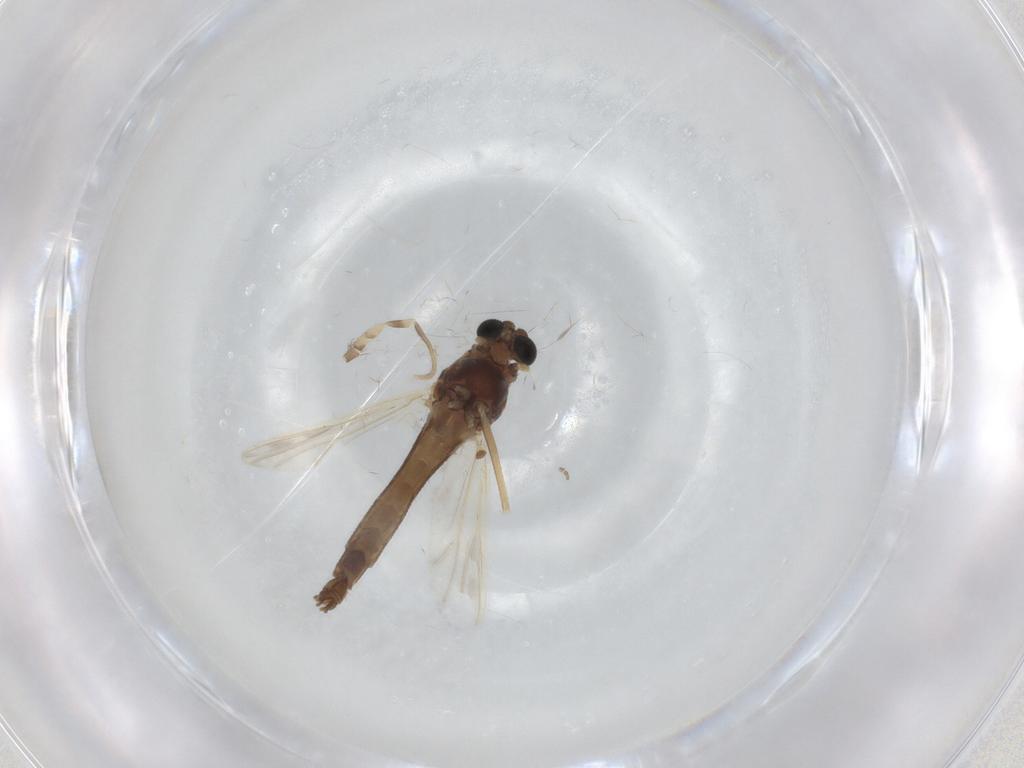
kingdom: Animalia
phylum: Arthropoda
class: Insecta
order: Diptera
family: Chironomidae
